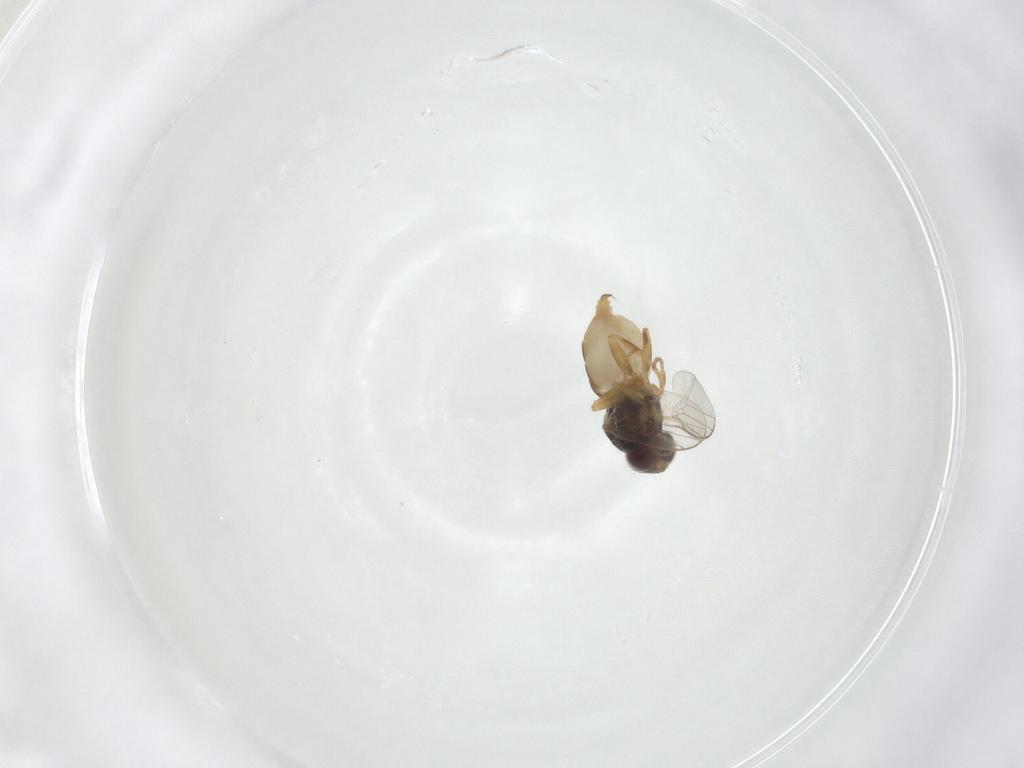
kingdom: Animalia
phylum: Arthropoda
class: Insecta
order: Diptera
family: Chloropidae
